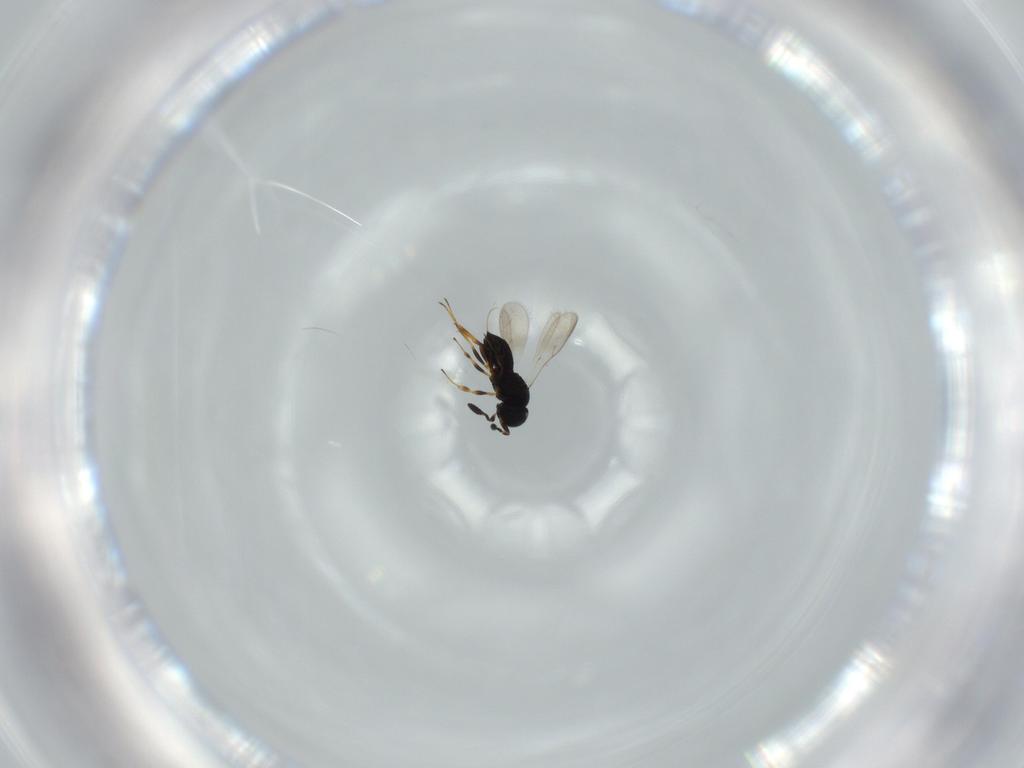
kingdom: Animalia
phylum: Arthropoda
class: Insecta
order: Hymenoptera
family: Scelionidae
